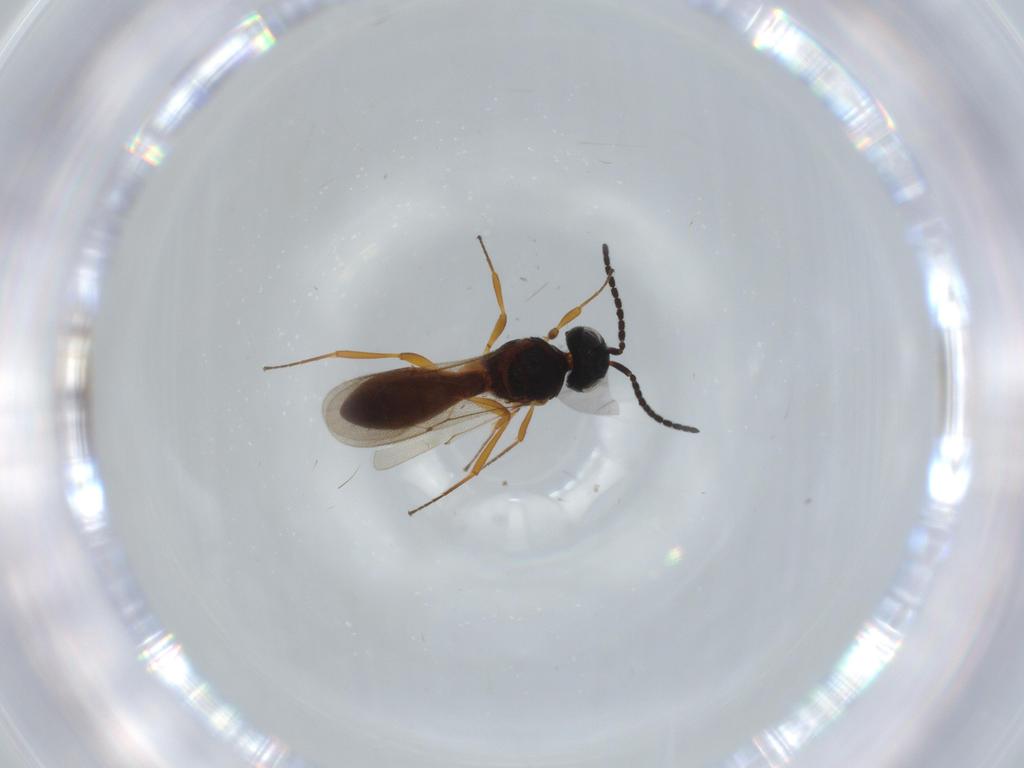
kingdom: Animalia
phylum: Arthropoda
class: Insecta
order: Hymenoptera
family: Scelionidae
